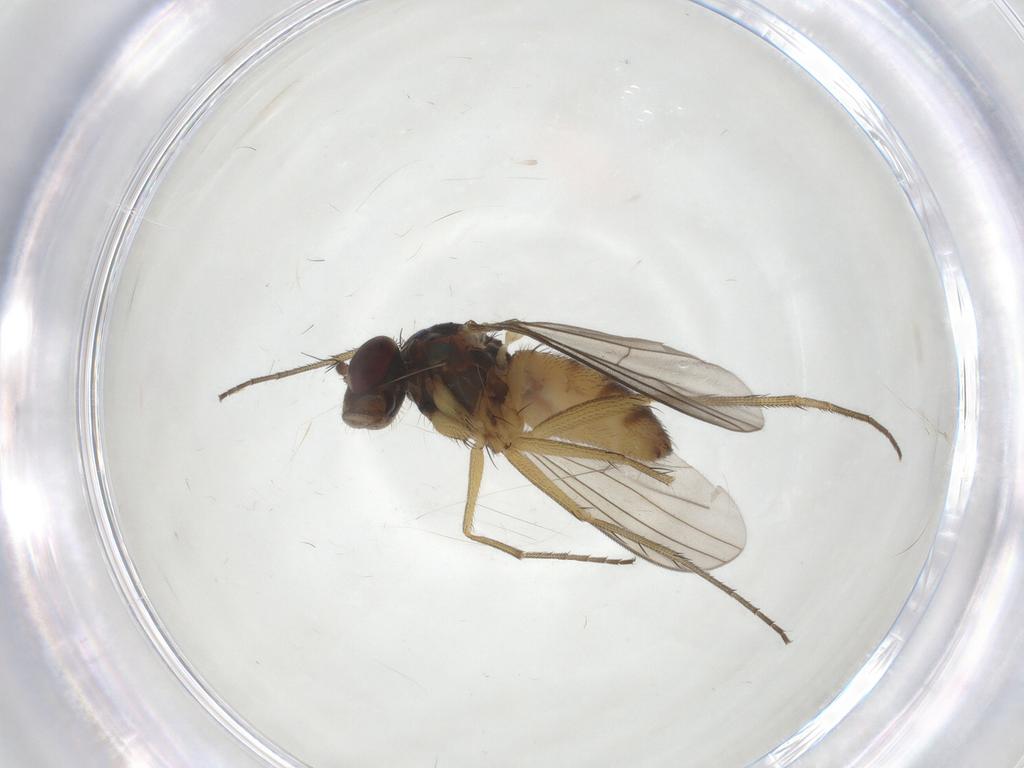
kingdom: Animalia
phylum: Arthropoda
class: Insecta
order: Diptera
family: Dolichopodidae
